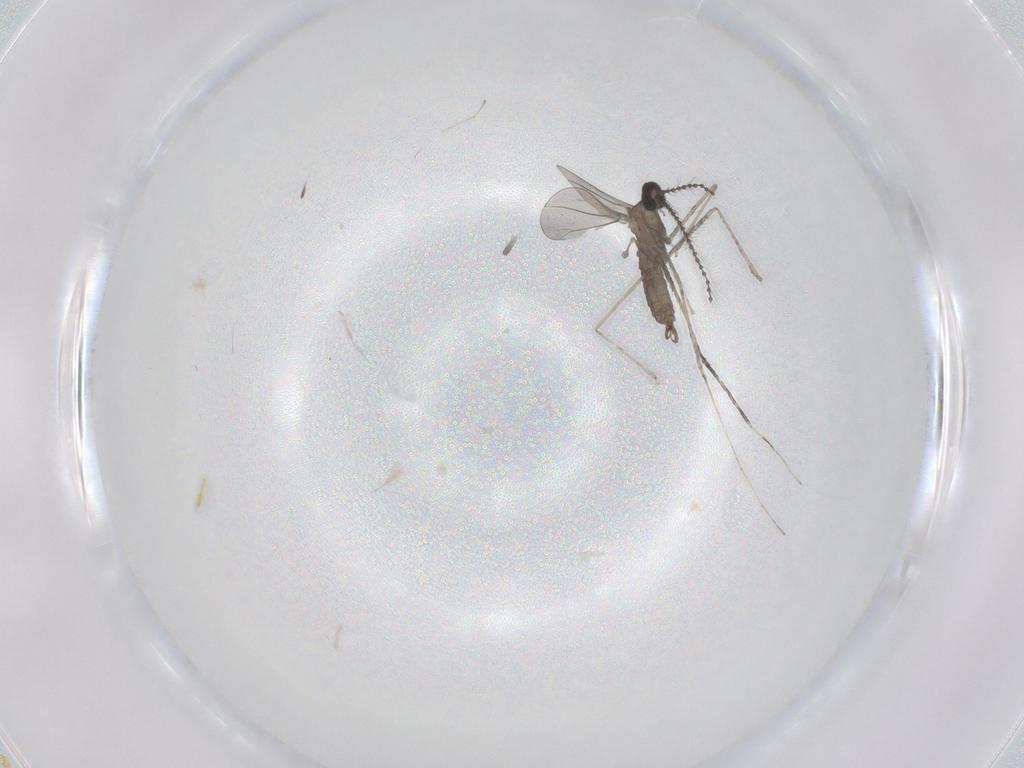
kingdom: Animalia
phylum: Arthropoda
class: Insecta
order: Diptera
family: Cecidomyiidae
